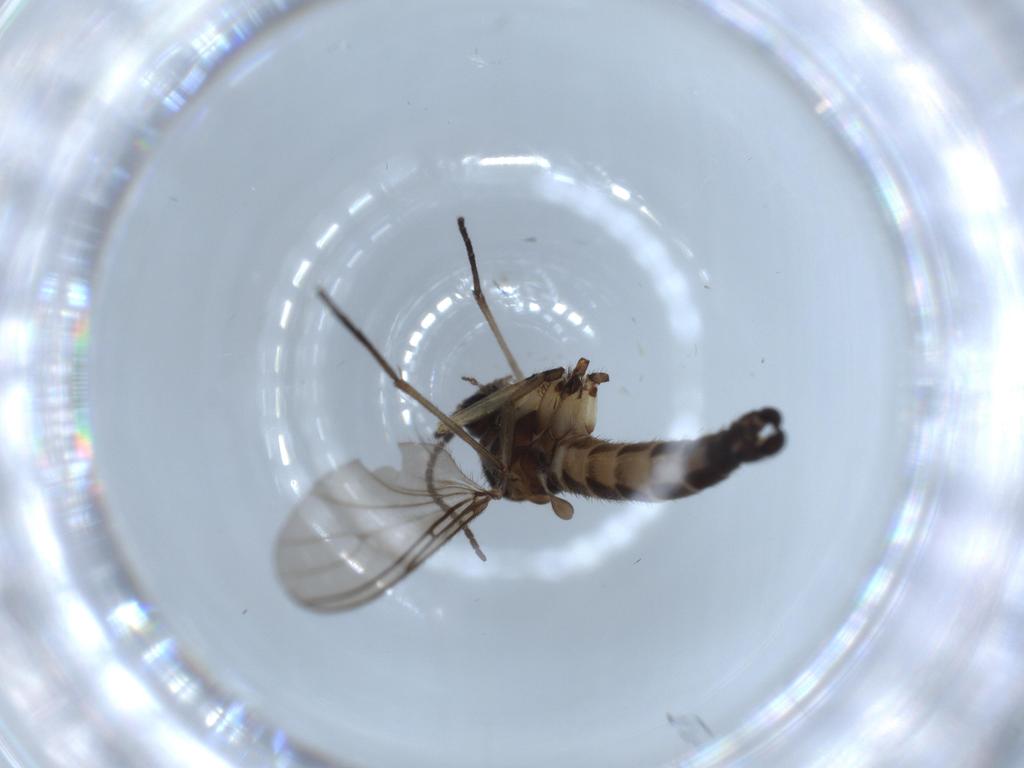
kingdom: Animalia
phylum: Arthropoda
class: Insecta
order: Diptera
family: Sciaridae
